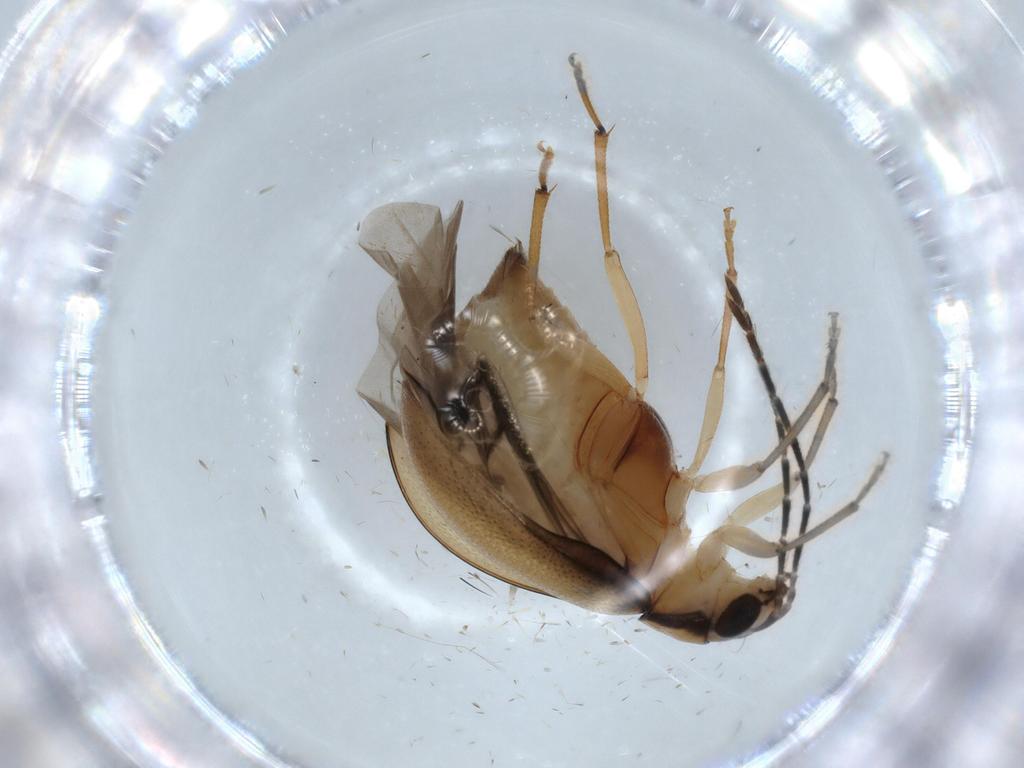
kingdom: Animalia
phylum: Arthropoda
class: Insecta
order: Coleoptera
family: Chrysomelidae
